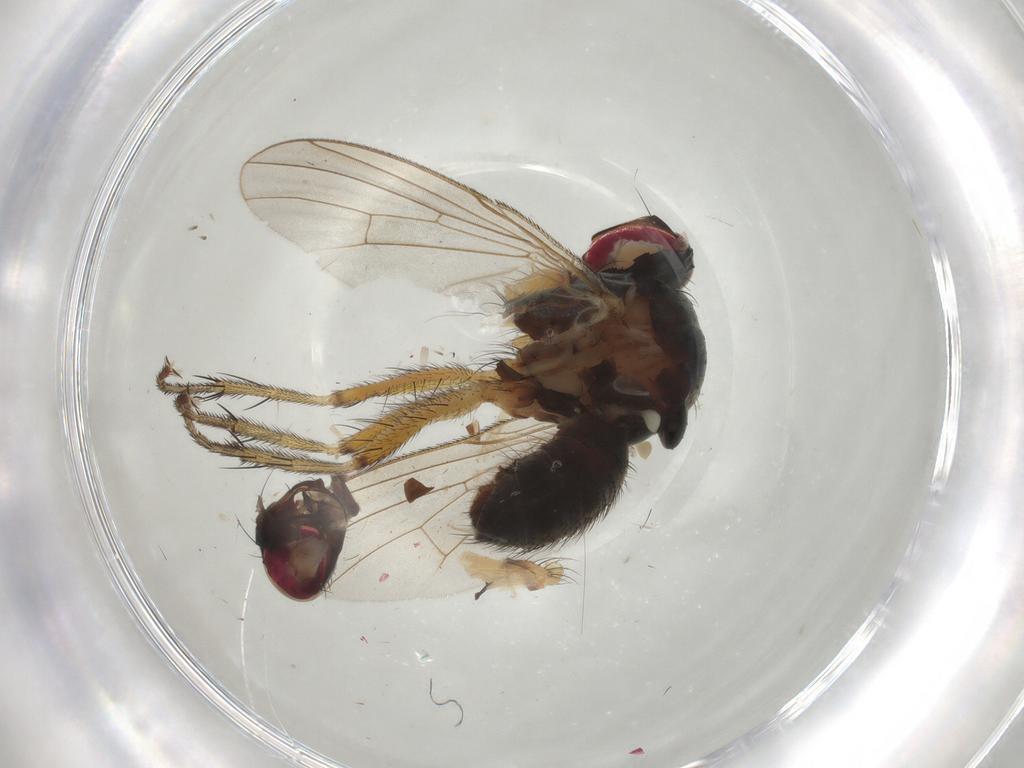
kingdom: Animalia
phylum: Arthropoda
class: Insecta
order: Diptera
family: Muscidae
